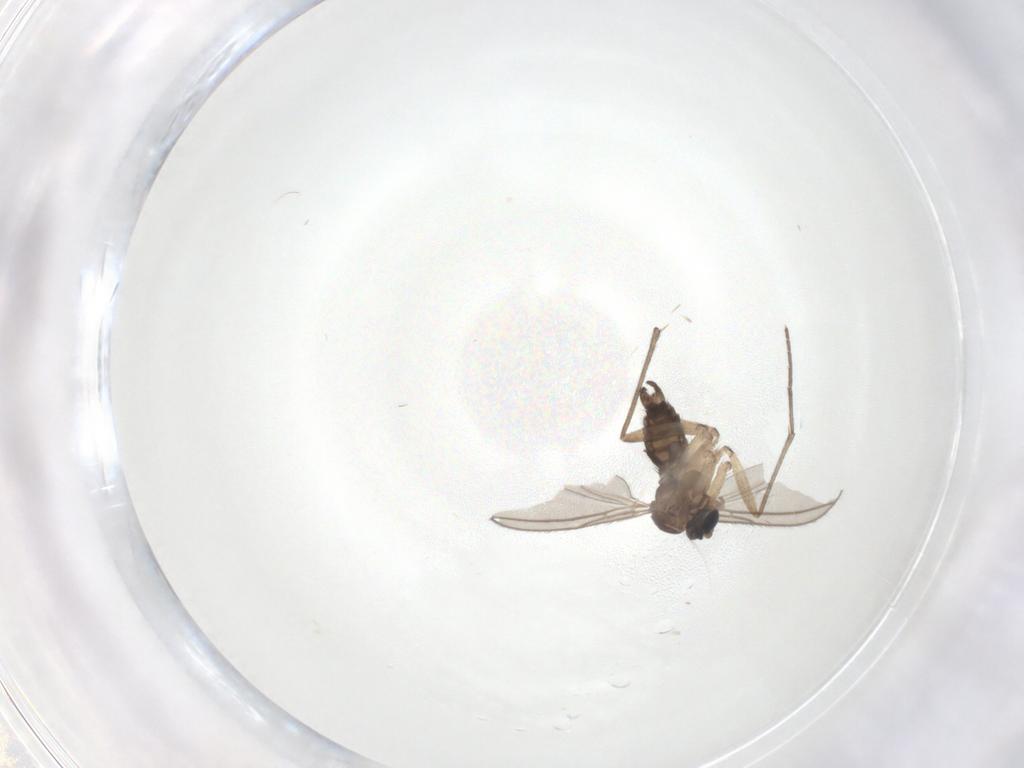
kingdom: Animalia
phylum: Arthropoda
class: Insecta
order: Diptera
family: Sciaridae
